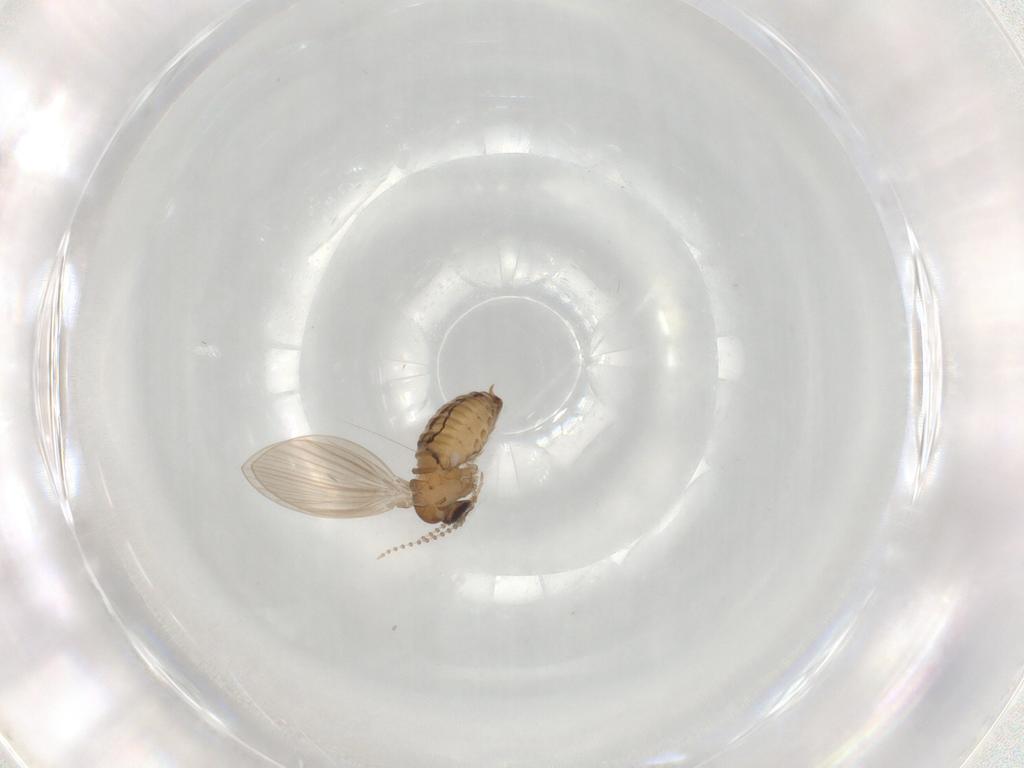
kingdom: Animalia
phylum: Arthropoda
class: Insecta
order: Diptera
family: Psychodidae
